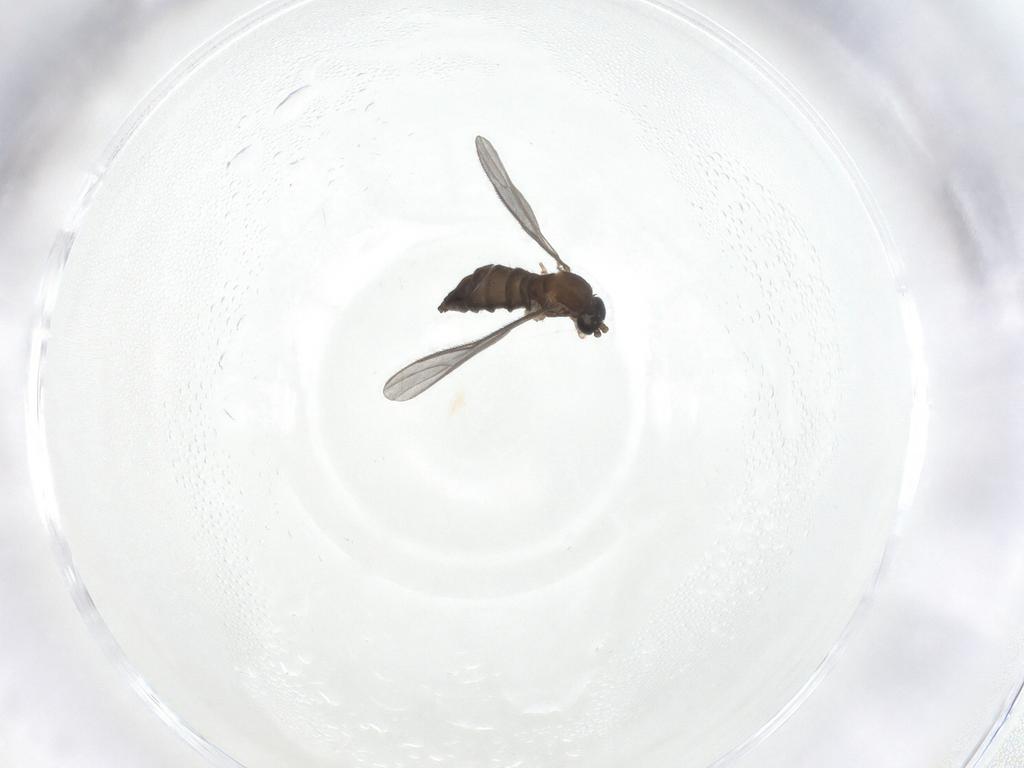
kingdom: Animalia
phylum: Arthropoda
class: Insecta
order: Diptera
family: Sciaridae
